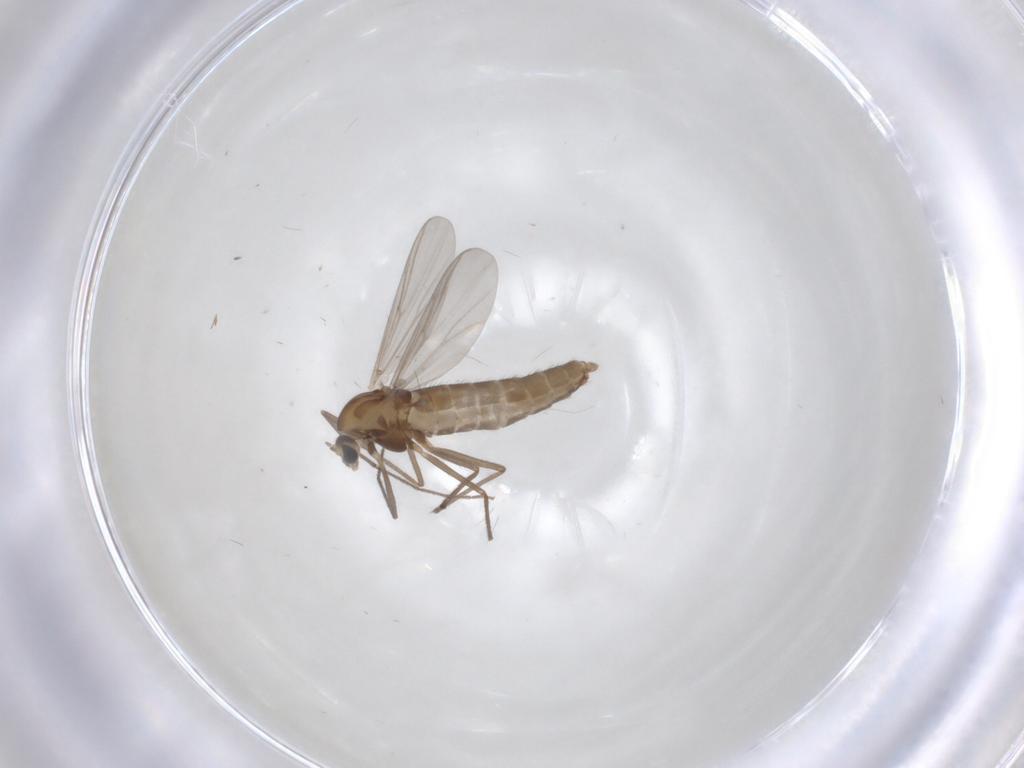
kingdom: Animalia
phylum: Arthropoda
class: Insecta
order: Diptera
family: Chironomidae
